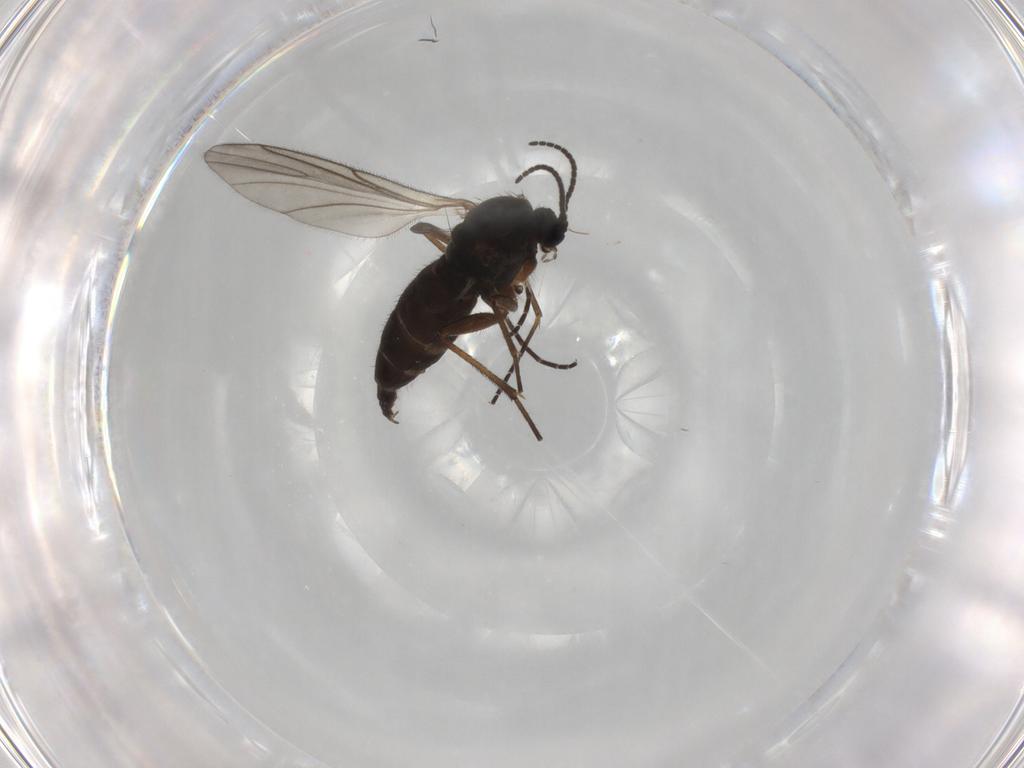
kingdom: Animalia
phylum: Arthropoda
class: Insecta
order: Diptera
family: Sciaridae
